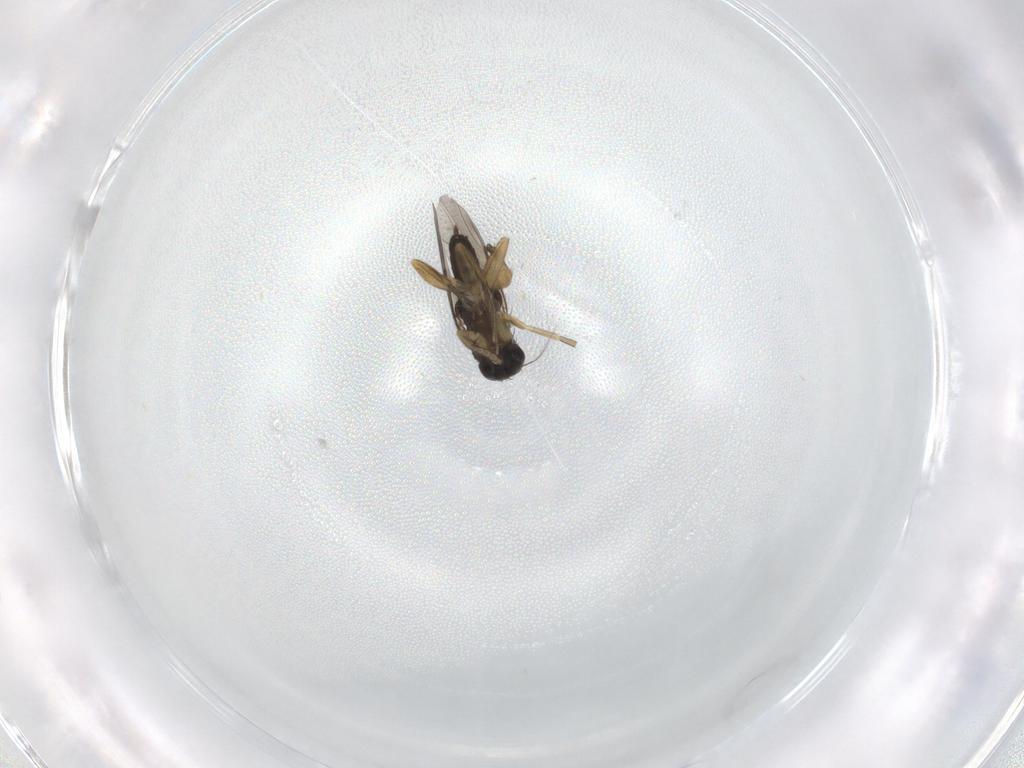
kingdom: Animalia
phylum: Arthropoda
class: Insecta
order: Diptera
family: Phoridae
